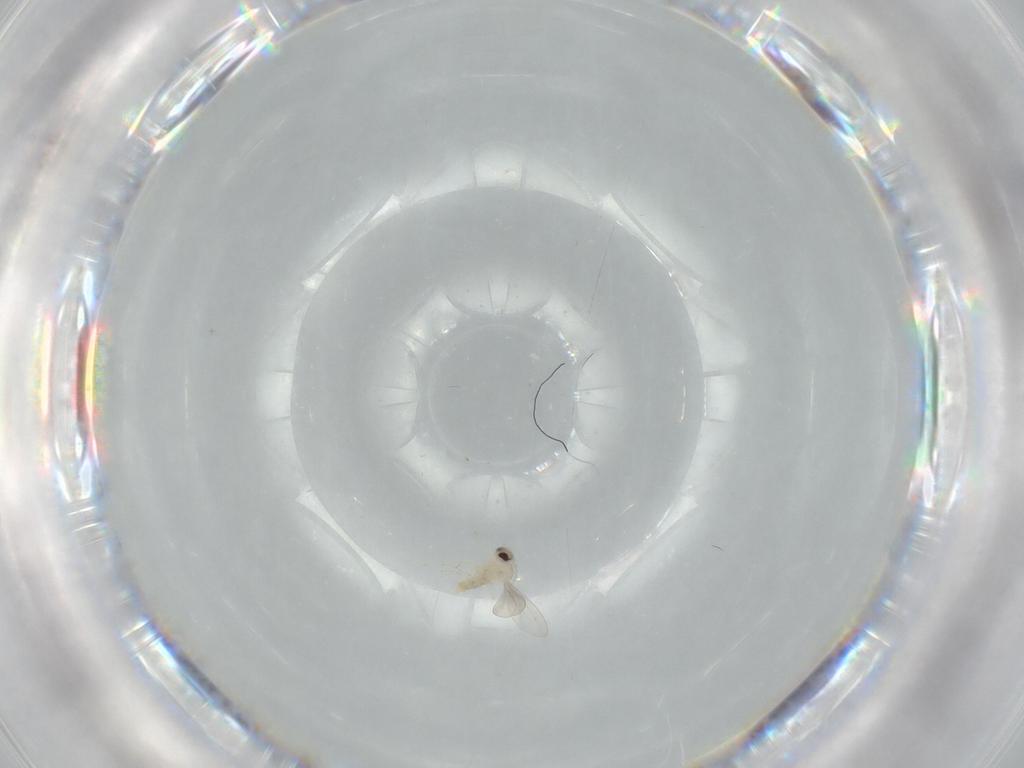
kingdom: Animalia
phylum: Arthropoda
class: Insecta
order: Diptera
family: Cecidomyiidae
